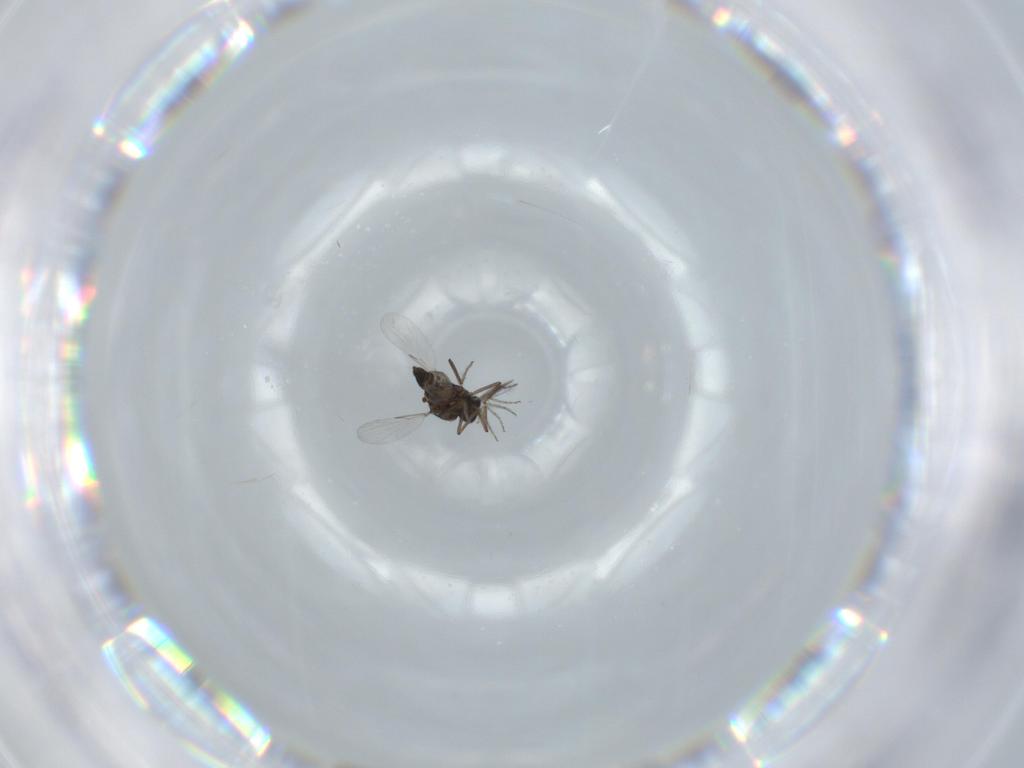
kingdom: Animalia
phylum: Arthropoda
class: Insecta
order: Diptera
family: Ceratopogonidae
